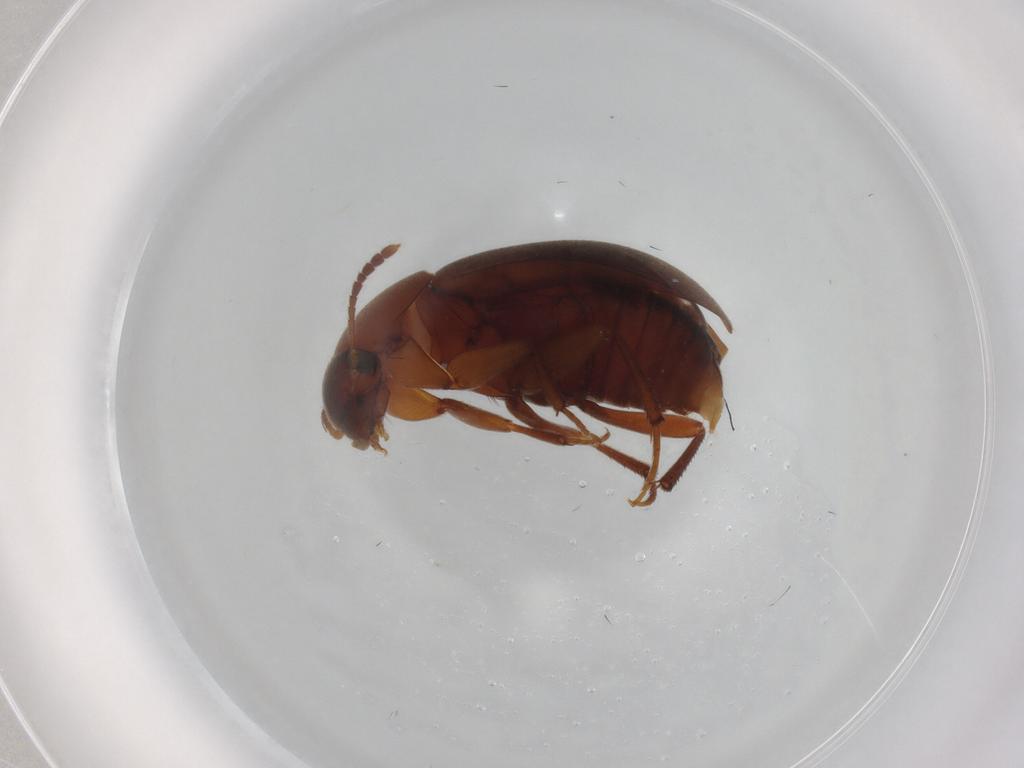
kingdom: Animalia
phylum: Arthropoda
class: Insecta
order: Coleoptera
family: Leiodidae
